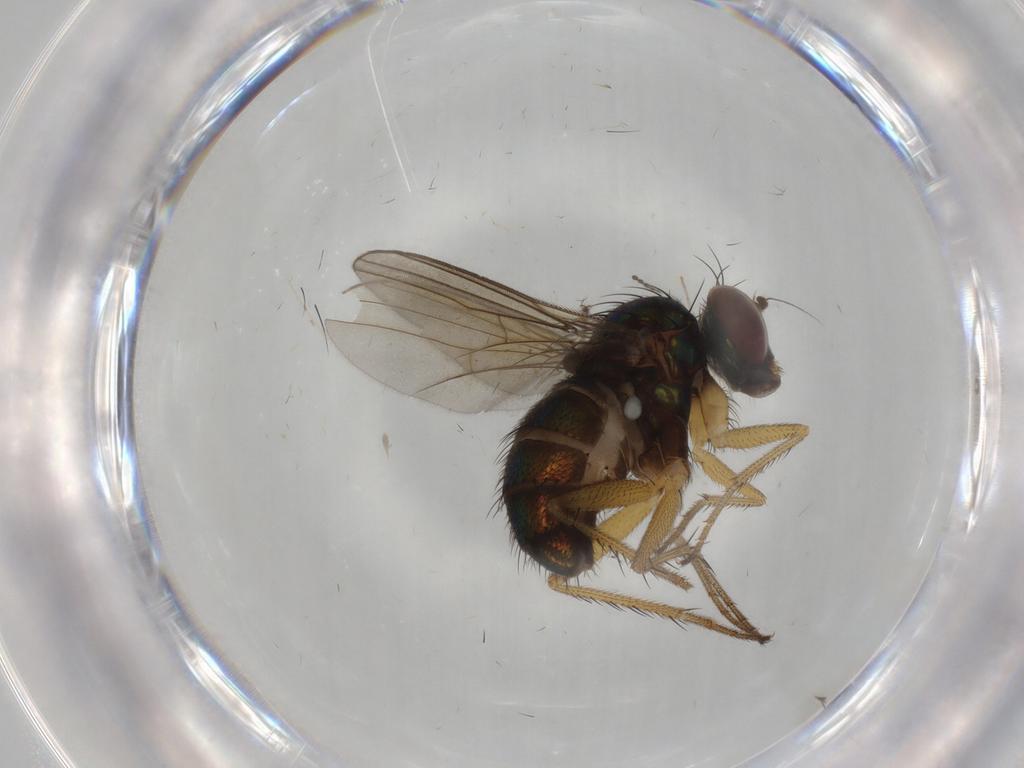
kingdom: Animalia
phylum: Arthropoda
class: Insecta
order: Diptera
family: Dolichopodidae
